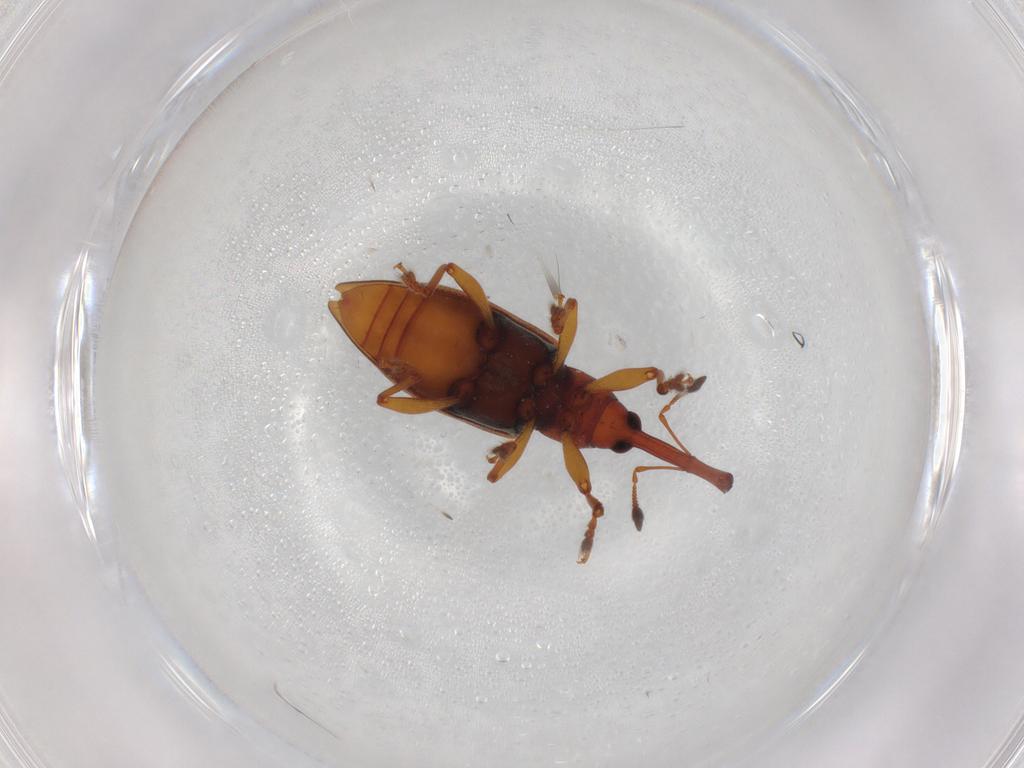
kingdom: Animalia
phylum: Arthropoda
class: Insecta
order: Coleoptera
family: Curculionidae
